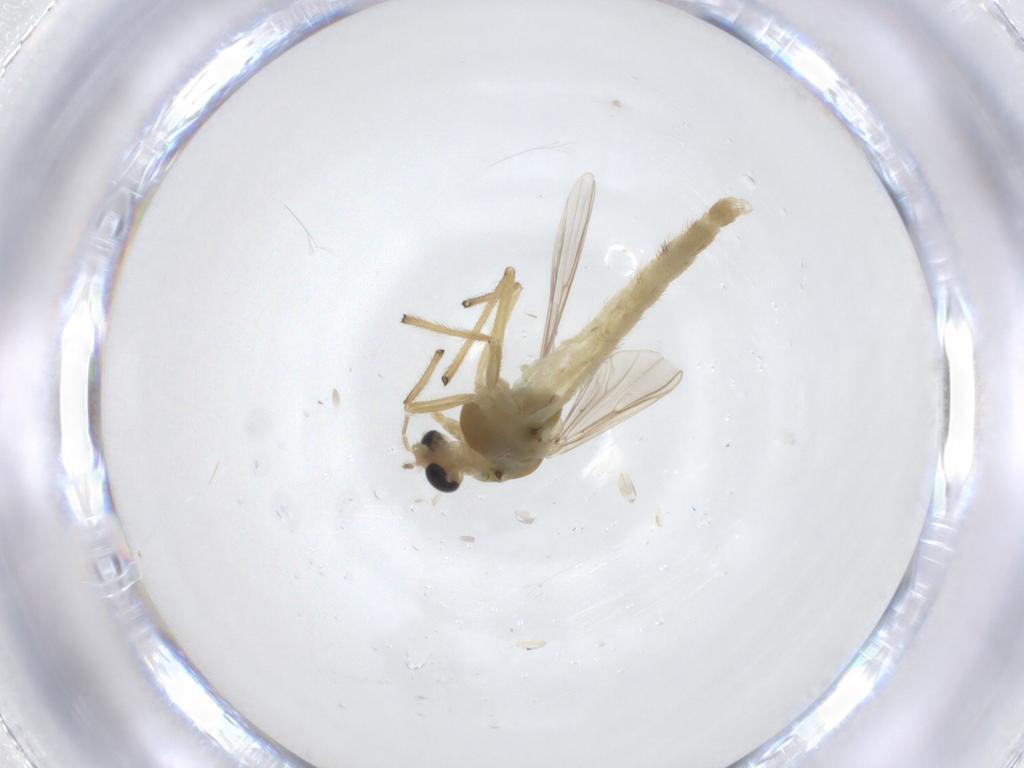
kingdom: Animalia
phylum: Arthropoda
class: Insecta
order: Diptera
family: Chironomidae
